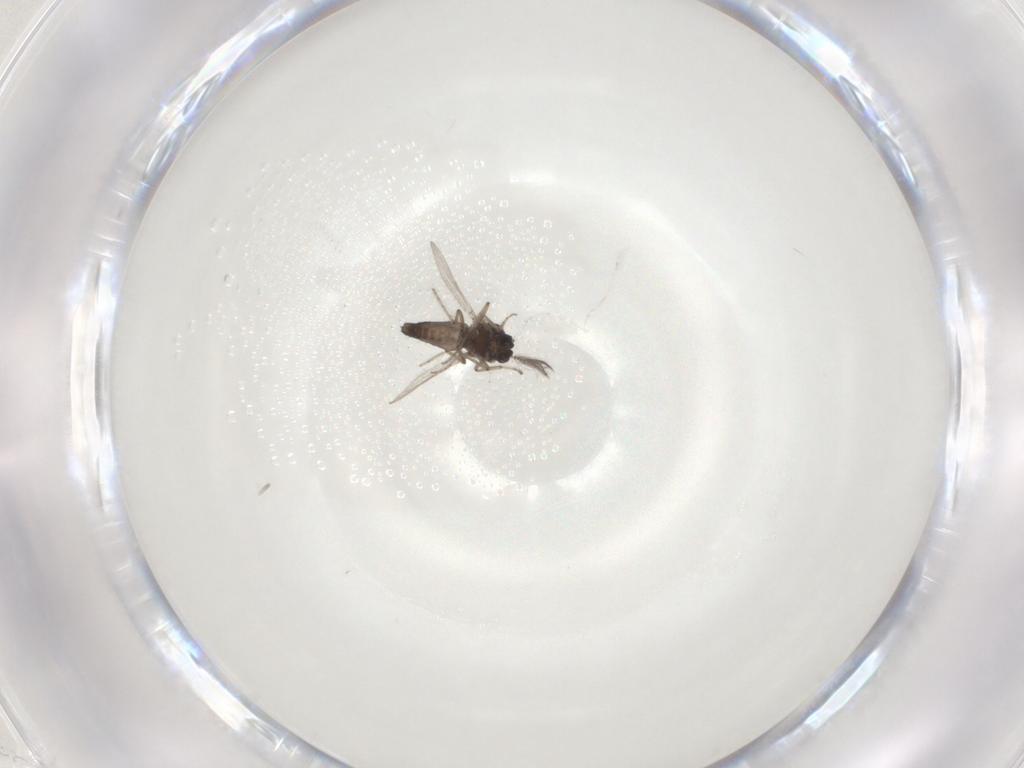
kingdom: Animalia
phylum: Arthropoda
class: Insecta
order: Diptera
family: Ceratopogonidae
